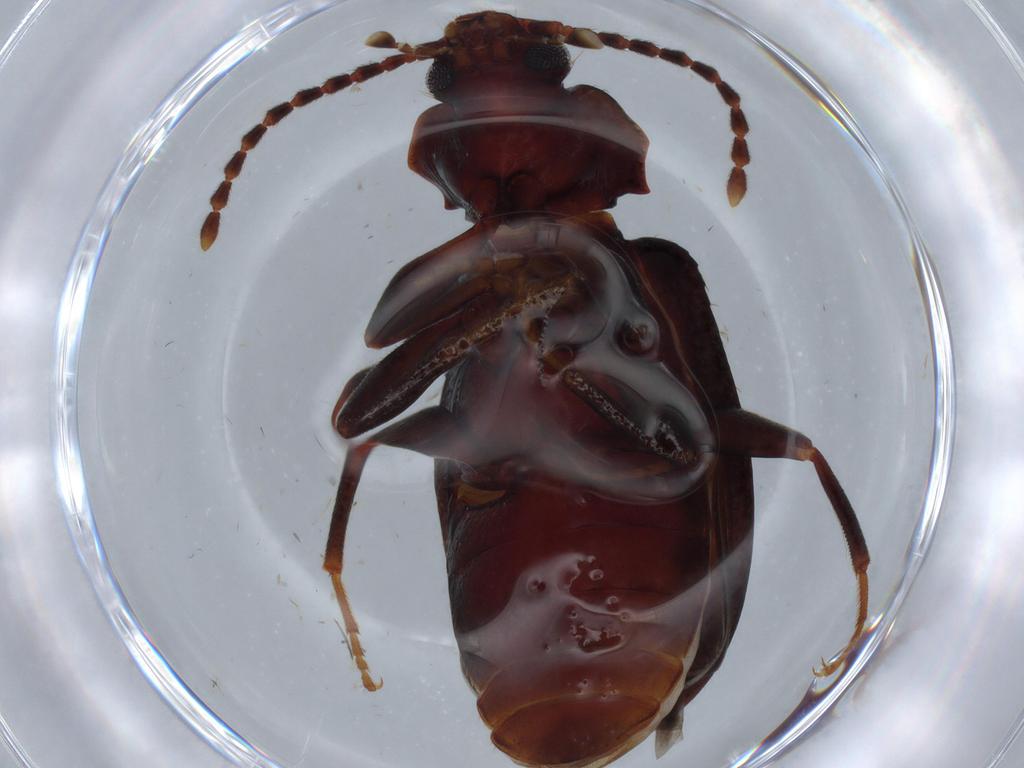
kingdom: Animalia
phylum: Arthropoda
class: Insecta
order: Coleoptera
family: Tenebrionidae
